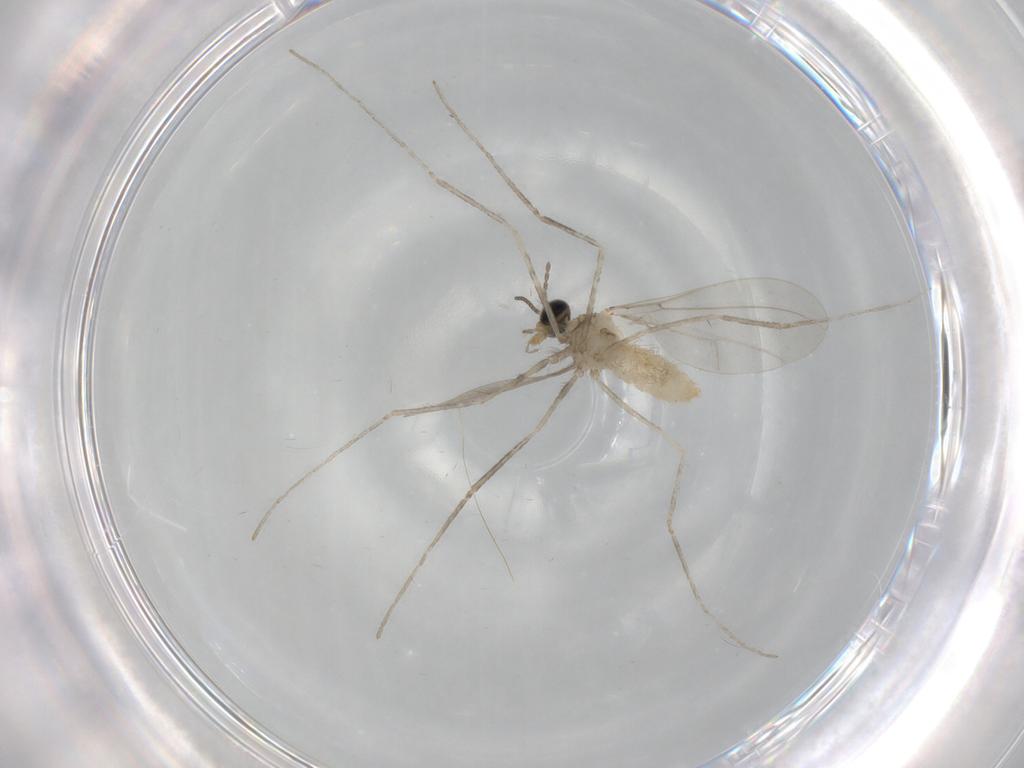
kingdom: Animalia
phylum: Arthropoda
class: Insecta
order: Diptera
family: Cecidomyiidae
